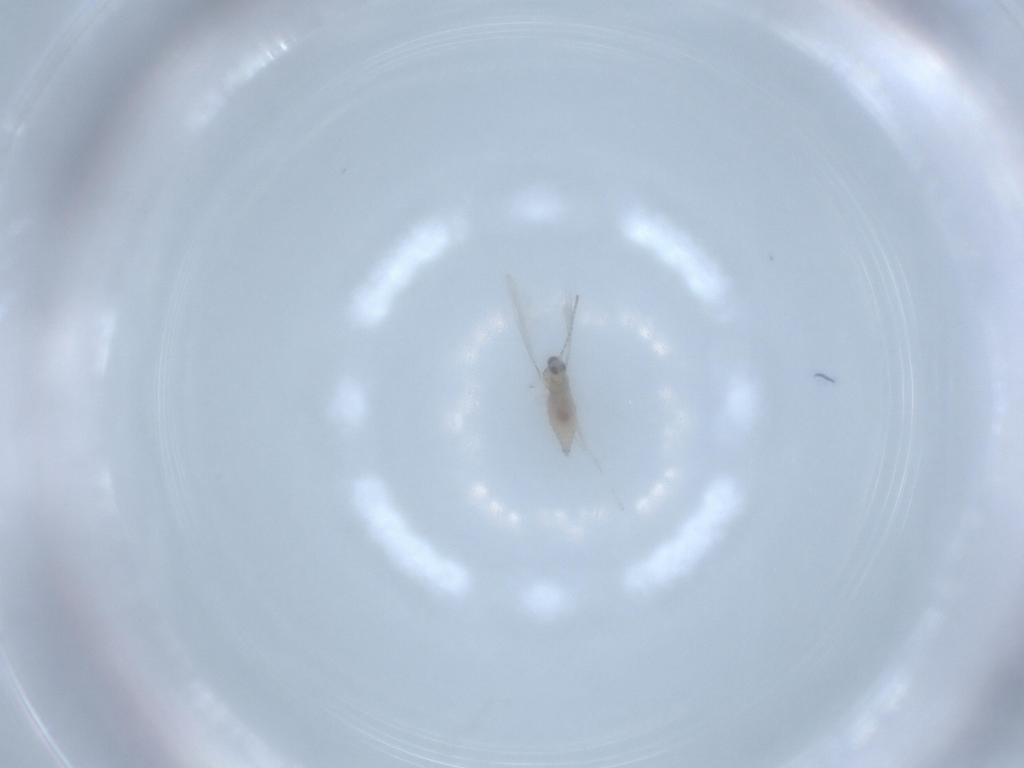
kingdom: Animalia
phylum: Arthropoda
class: Insecta
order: Diptera
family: Cecidomyiidae
